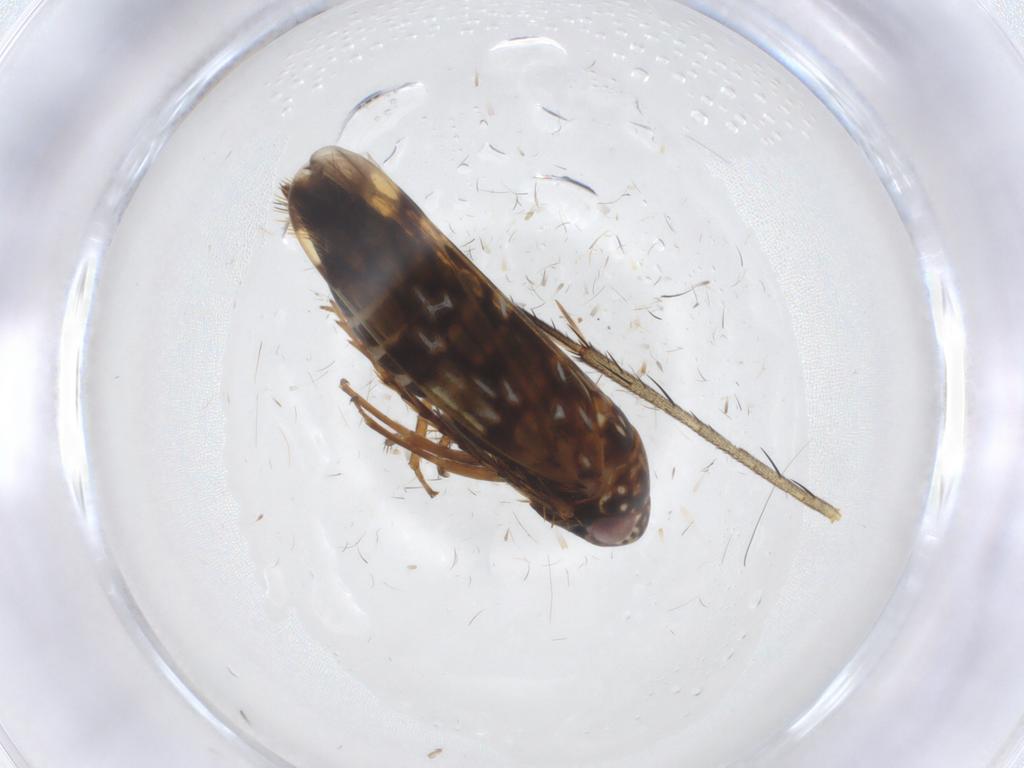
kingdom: Animalia
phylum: Arthropoda
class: Insecta
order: Hemiptera
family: Cicadellidae
